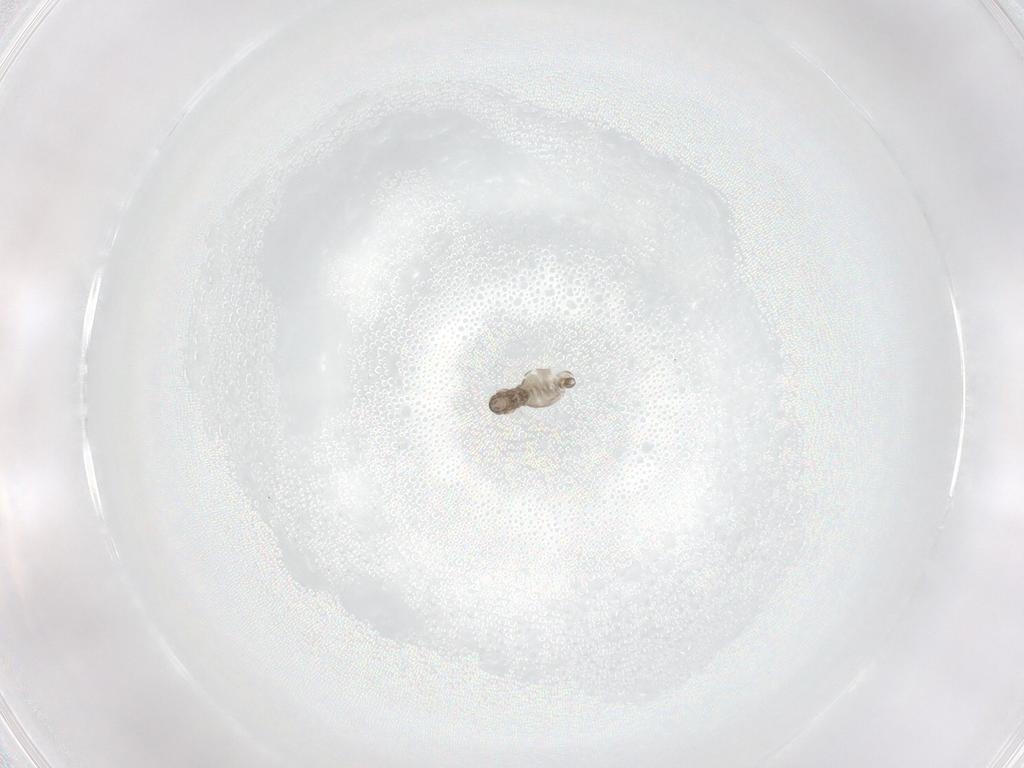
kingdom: Animalia
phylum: Arthropoda
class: Insecta
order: Diptera
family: Cecidomyiidae
